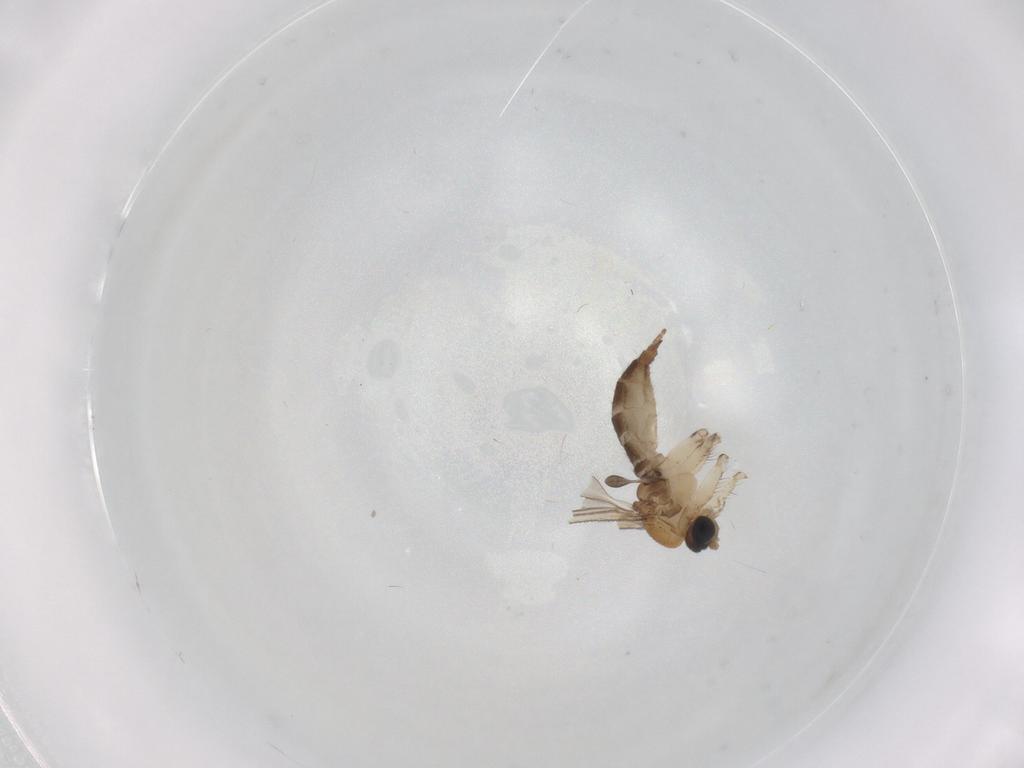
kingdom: Animalia
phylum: Arthropoda
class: Insecta
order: Diptera
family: Sciaridae
